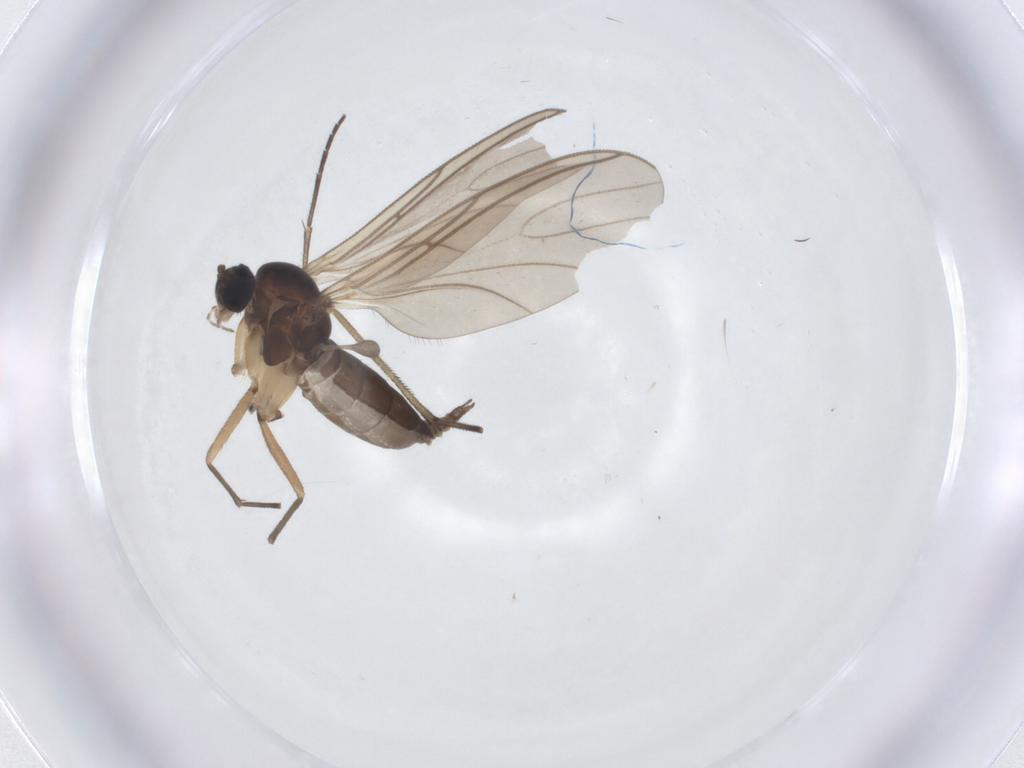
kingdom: Animalia
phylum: Arthropoda
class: Insecta
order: Diptera
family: Sciaridae
